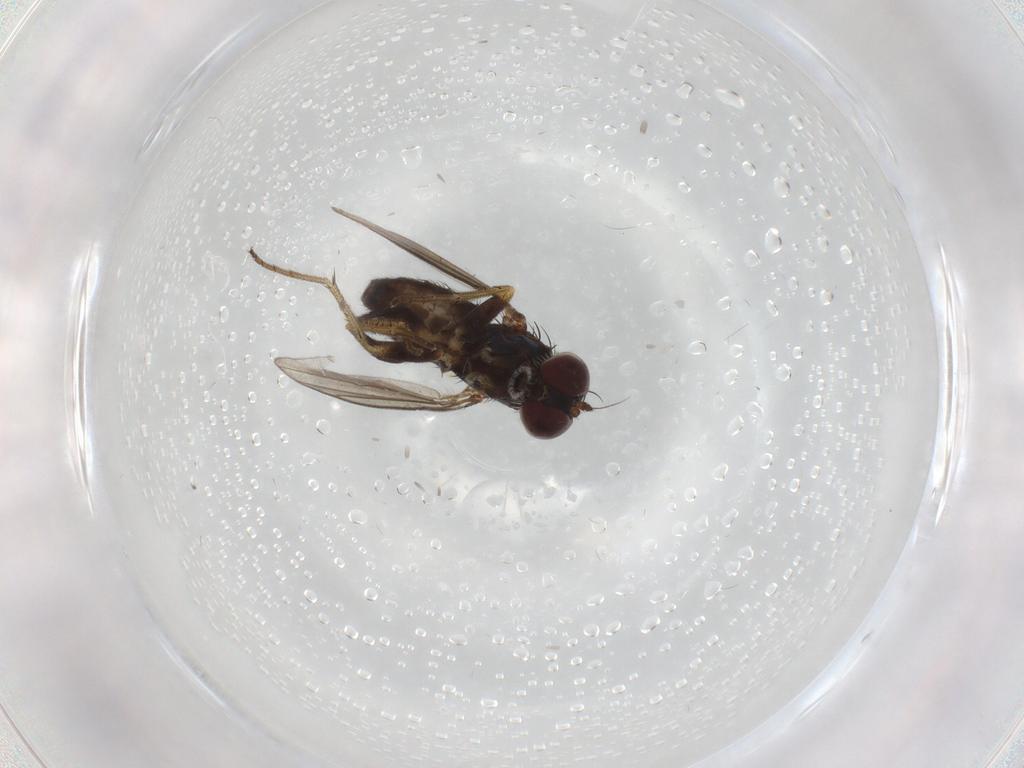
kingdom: Animalia
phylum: Arthropoda
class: Insecta
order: Diptera
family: Dolichopodidae
